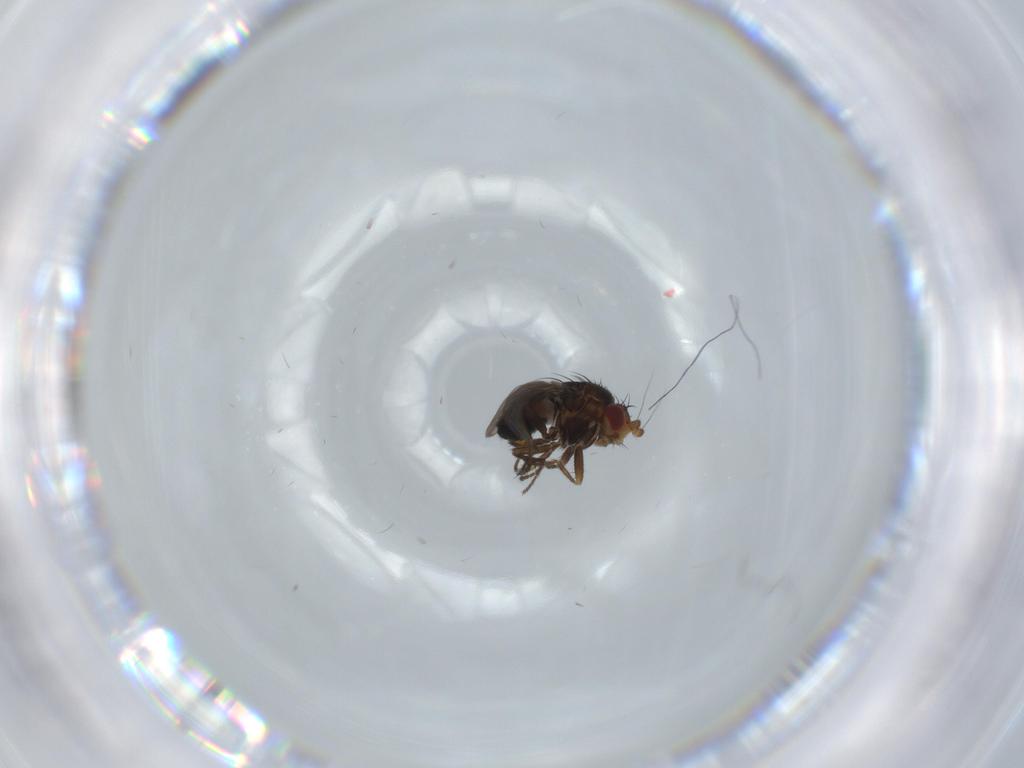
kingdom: Animalia
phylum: Arthropoda
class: Insecta
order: Diptera
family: Cecidomyiidae
